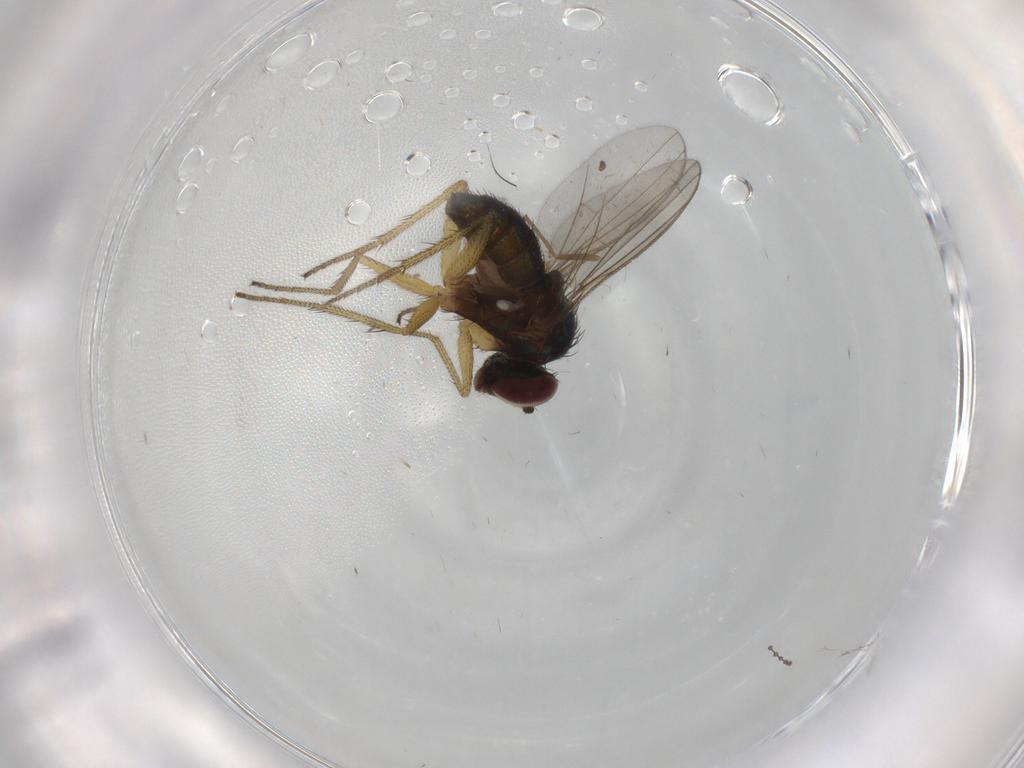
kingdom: Animalia
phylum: Arthropoda
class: Insecta
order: Diptera
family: Dolichopodidae
